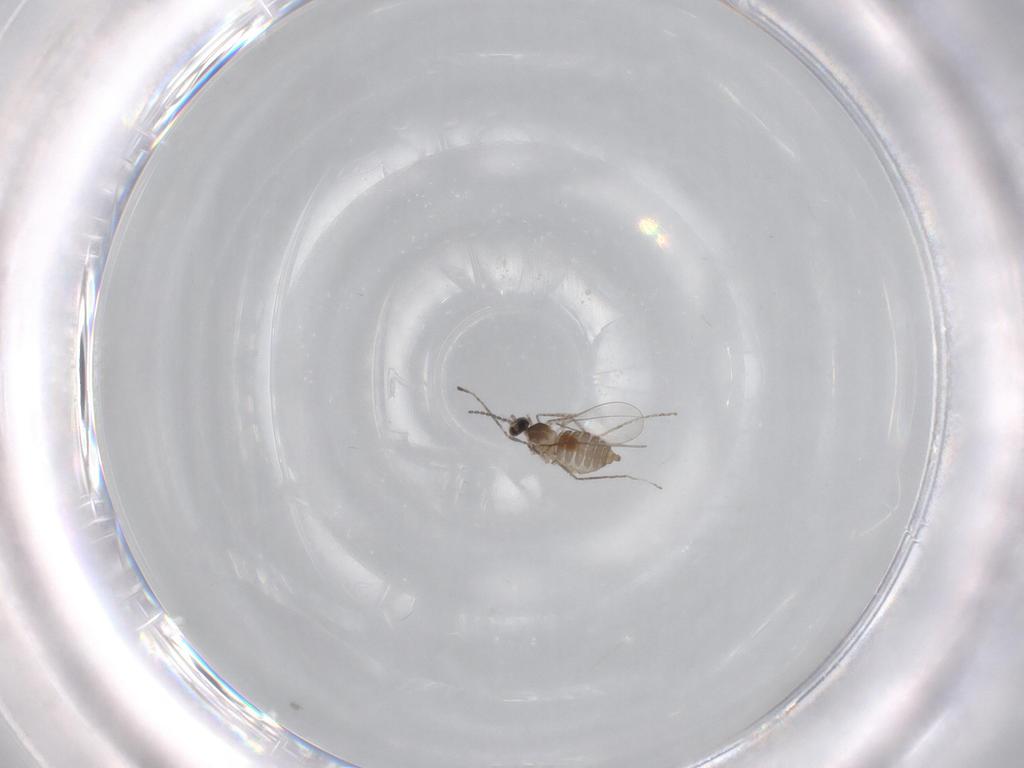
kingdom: Animalia
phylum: Arthropoda
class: Insecta
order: Diptera
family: Cecidomyiidae
